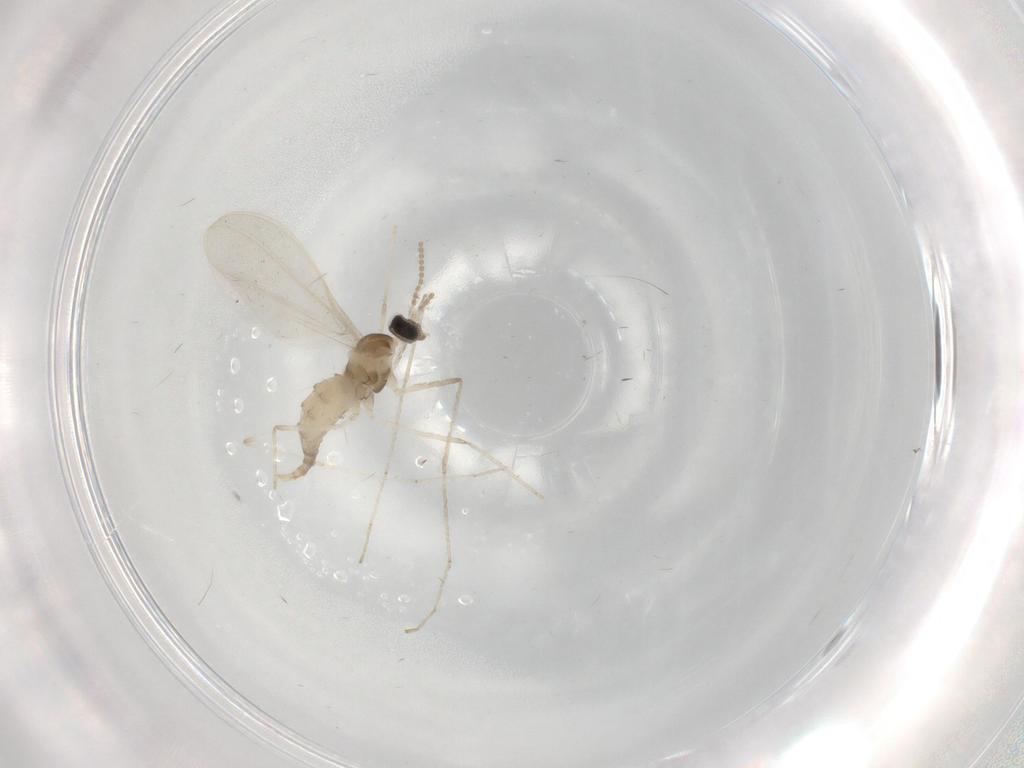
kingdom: Animalia
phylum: Arthropoda
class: Insecta
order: Diptera
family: Cecidomyiidae
